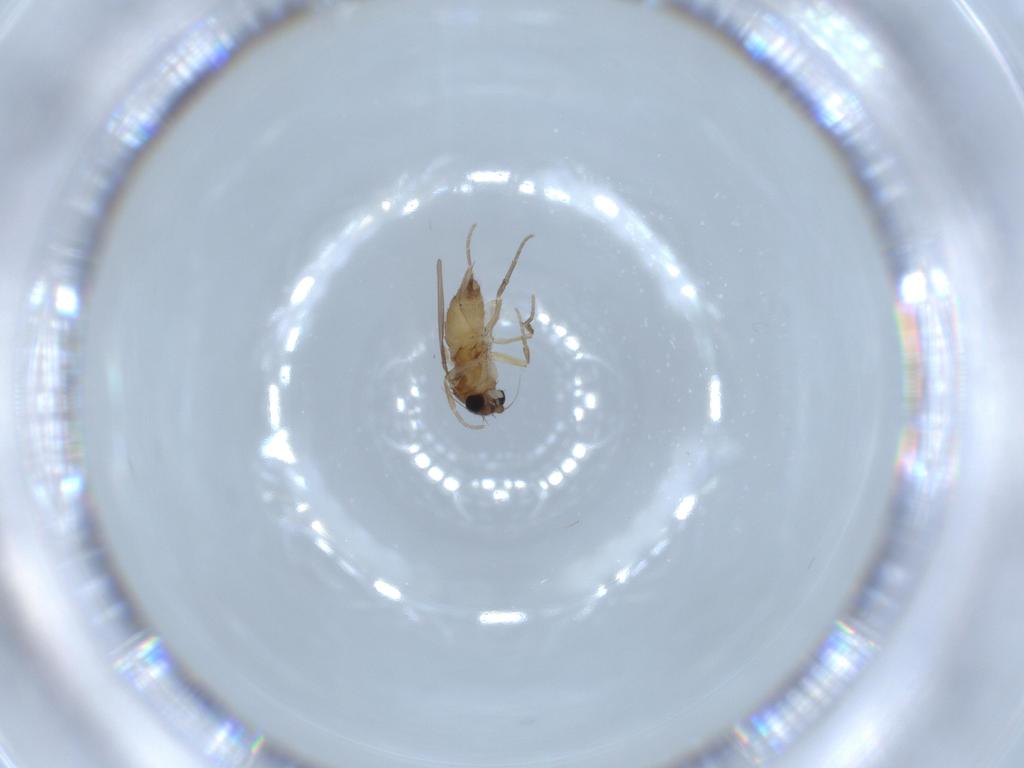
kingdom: Animalia
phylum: Arthropoda
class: Insecta
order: Diptera
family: Phoridae
